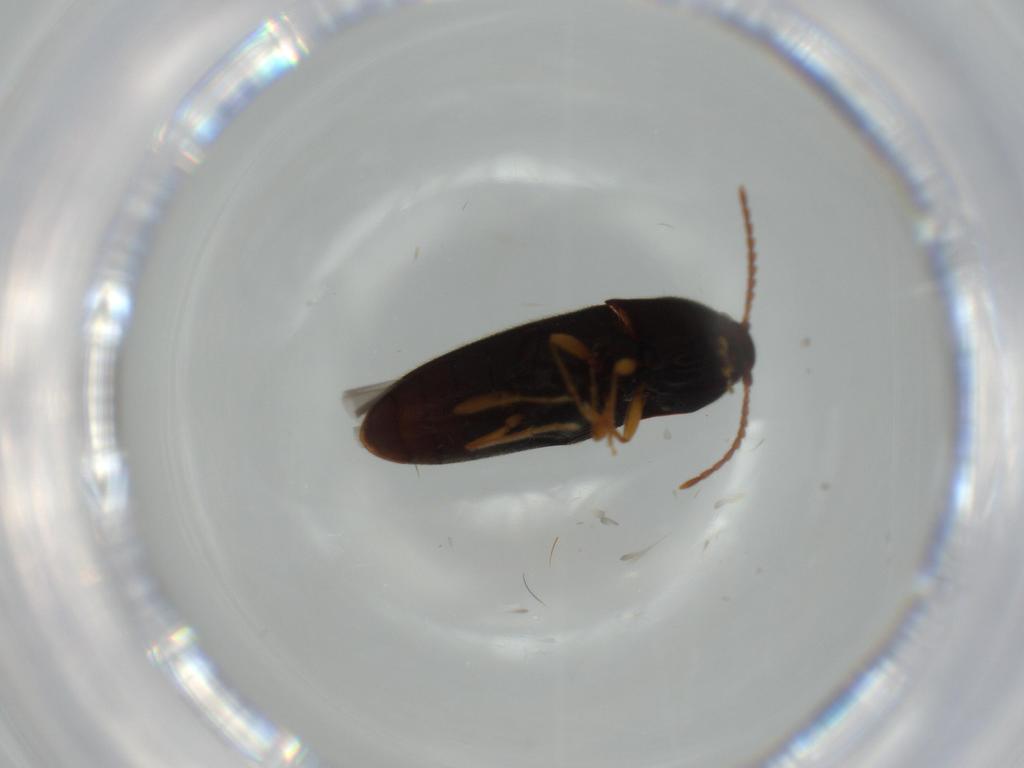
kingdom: Animalia
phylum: Arthropoda
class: Insecta
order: Coleoptera
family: Elateridae
